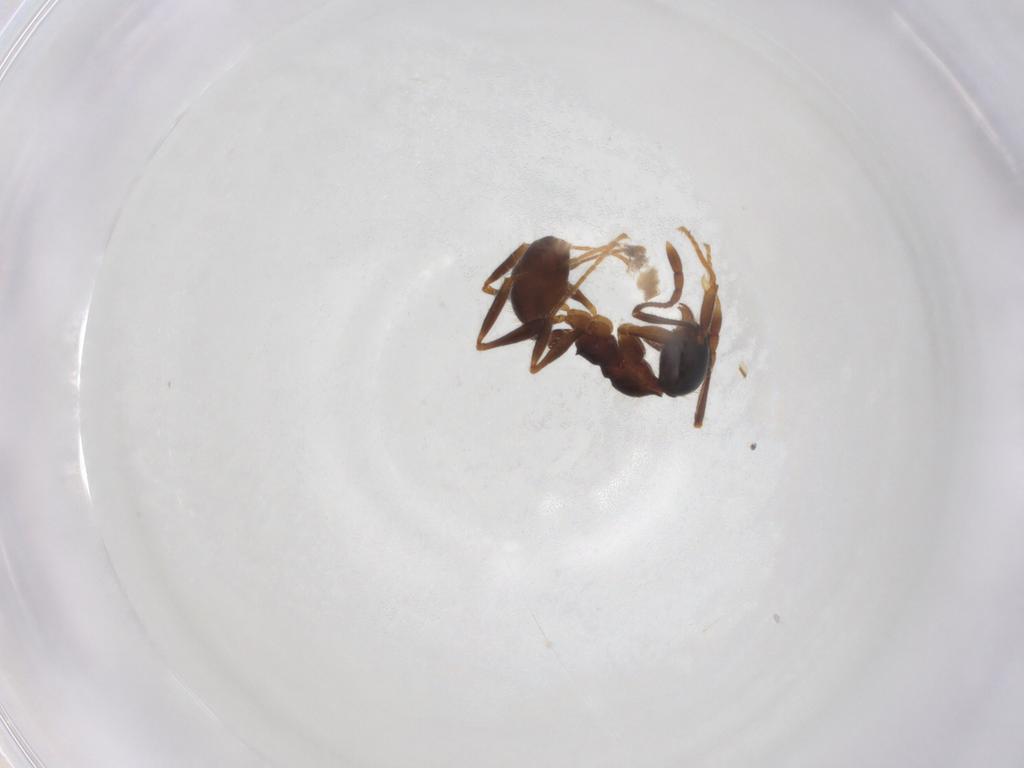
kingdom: Animalia
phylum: Arthropoda
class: Insecta
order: Hymenoptera
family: Formicidae
